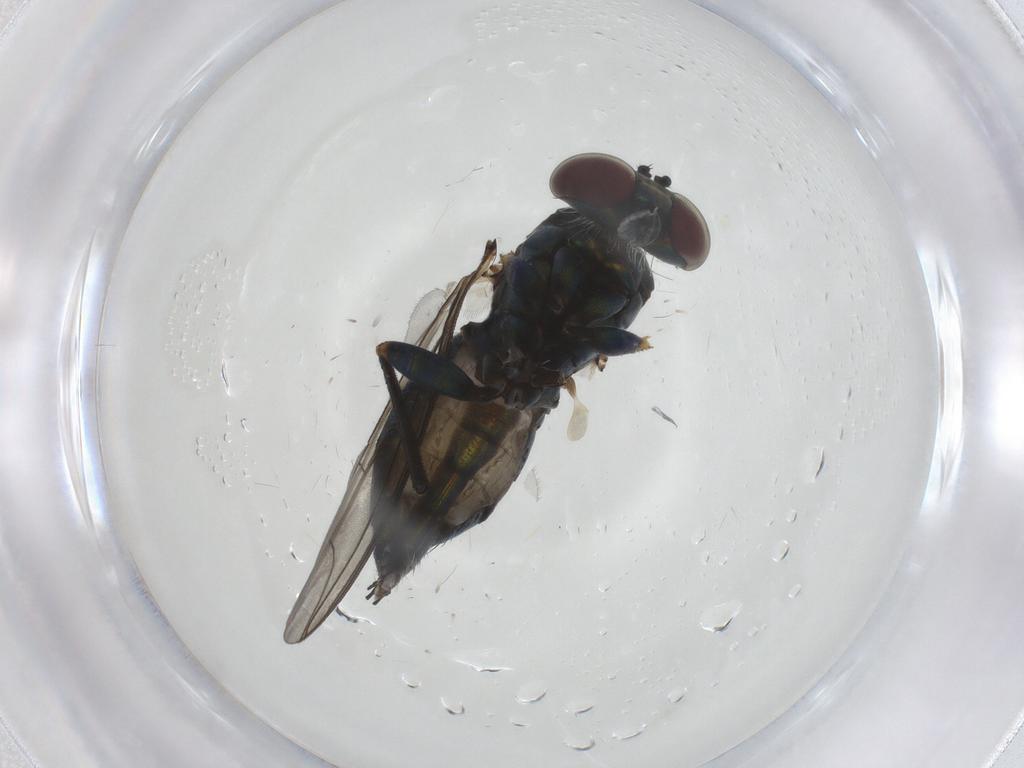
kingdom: Animalia
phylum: Arthropoda
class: Insecta
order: Diptera
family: Dolichopodidae
